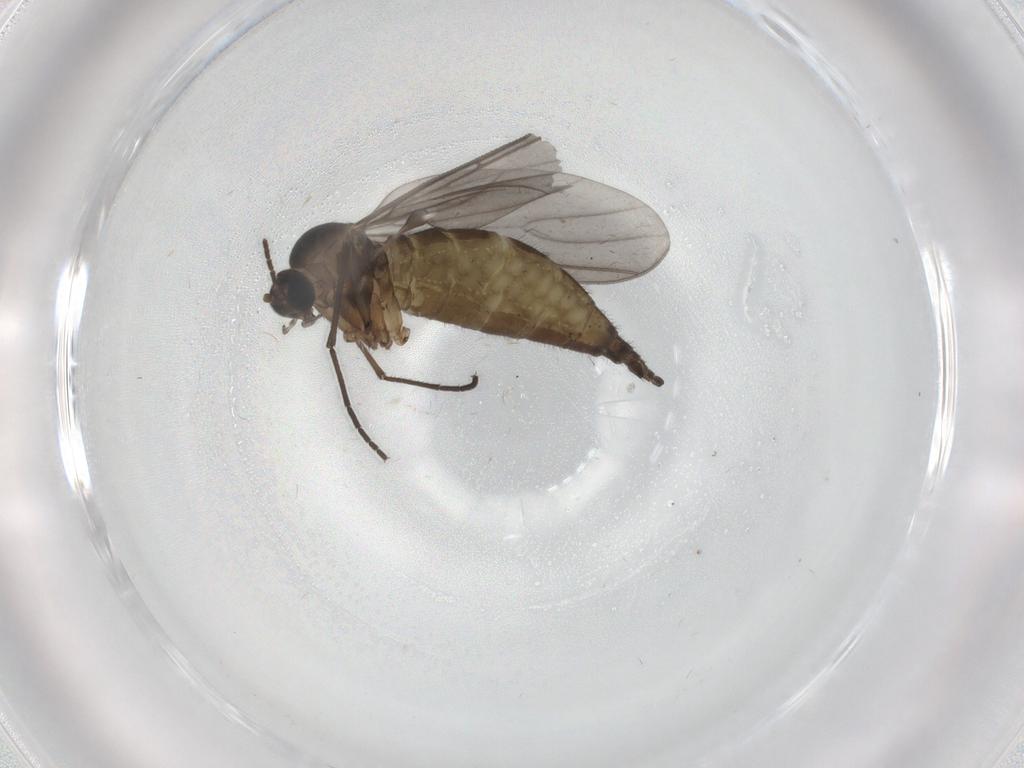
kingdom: Animalia
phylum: Arthropoda
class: Insecta
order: Diptera
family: Sciaridae
